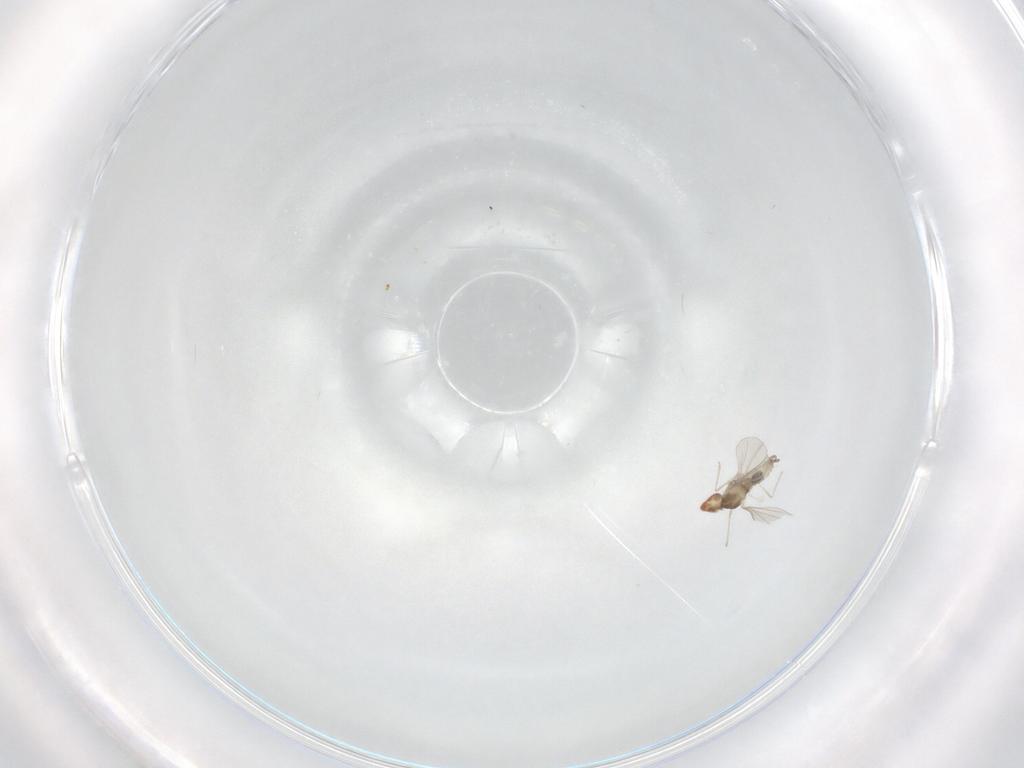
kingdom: Animalia
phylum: Arthropoda
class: Insecta
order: Diptera
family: Cecidomyiidae
